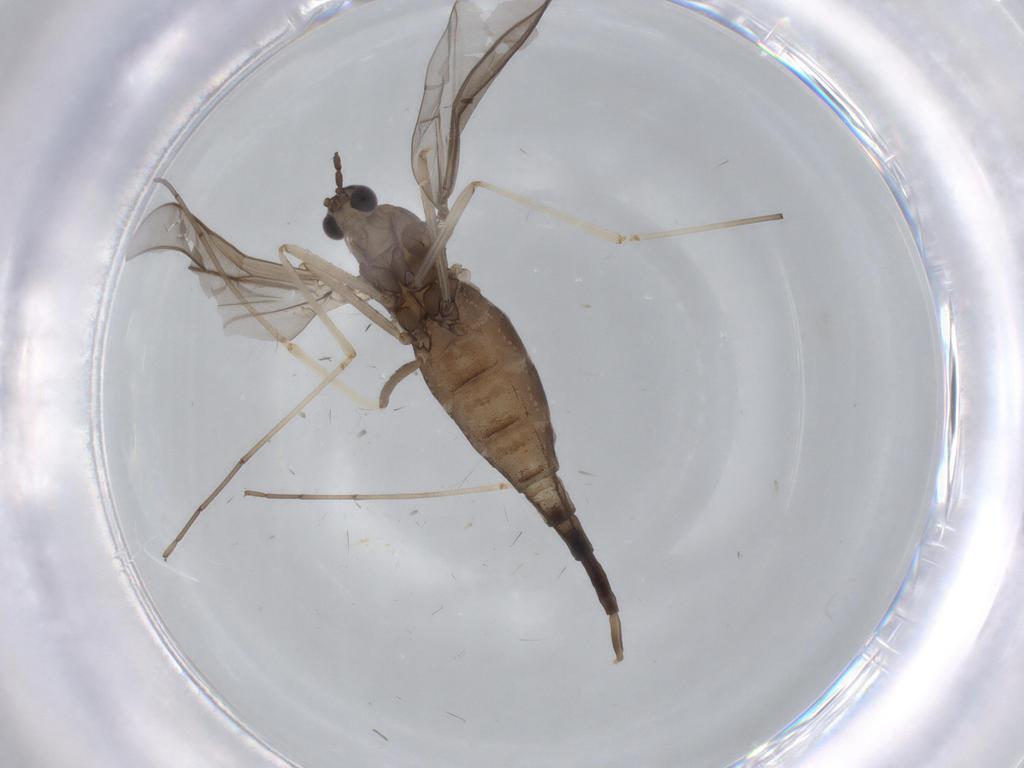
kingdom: Animalia
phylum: Arthropoda
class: Insecta
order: Diptera
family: Cecidomyiidae
